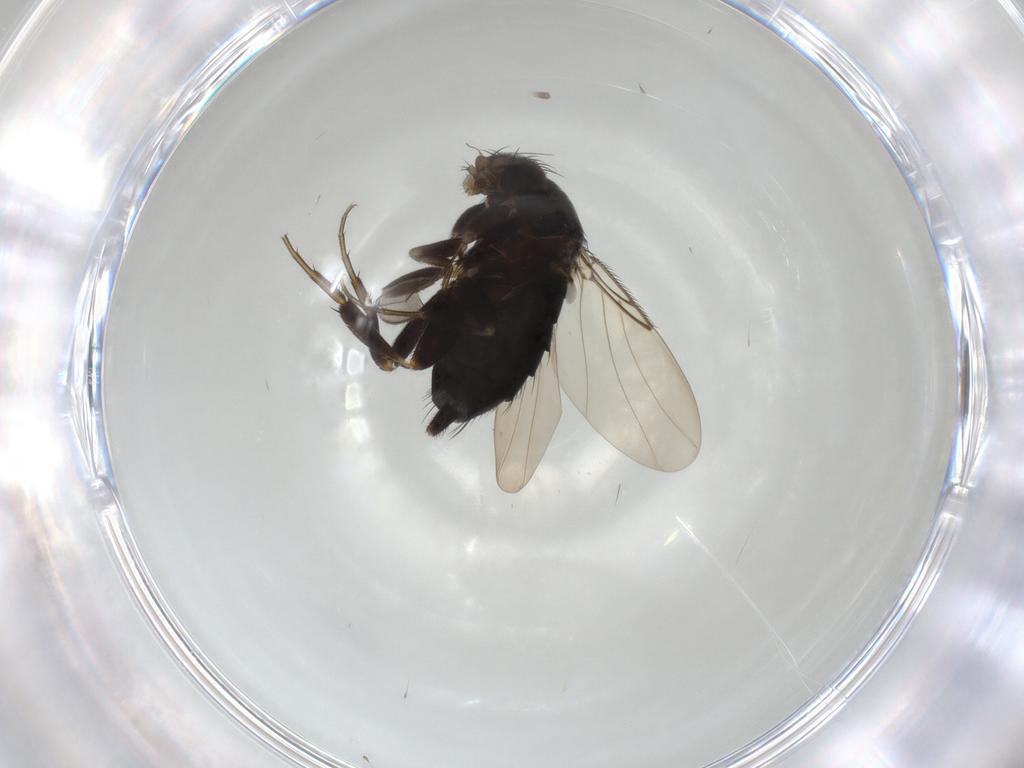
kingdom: Animalia
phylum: Arthropoda
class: Insecta
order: Diptera
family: Phoridae
